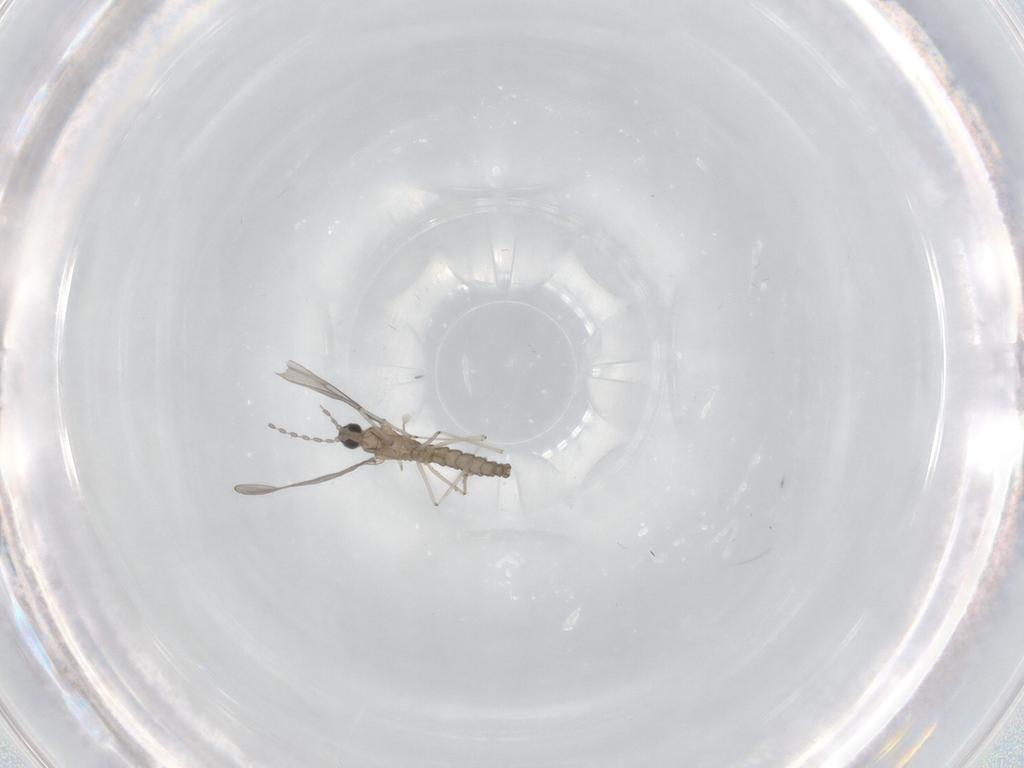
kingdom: Animalia
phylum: Arthropoda
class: Insecta
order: Diptera
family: Cecidomyiidae
